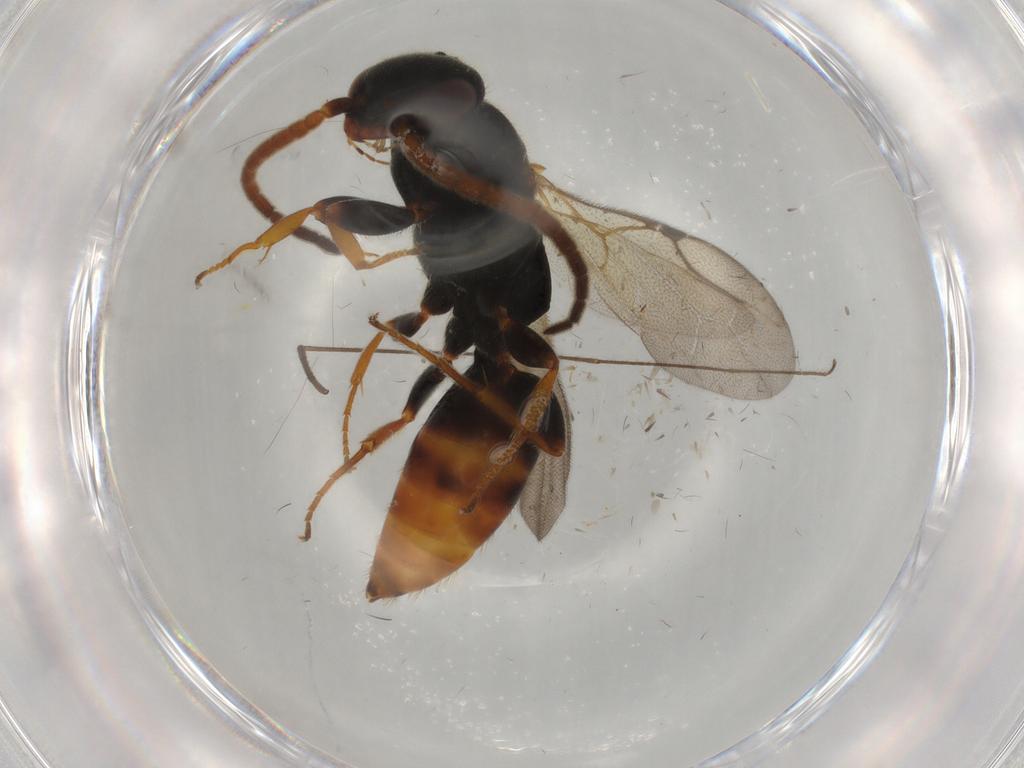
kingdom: Animalia
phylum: Arthropoda
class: Insecta
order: Hymenoptera
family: Bethylidae
